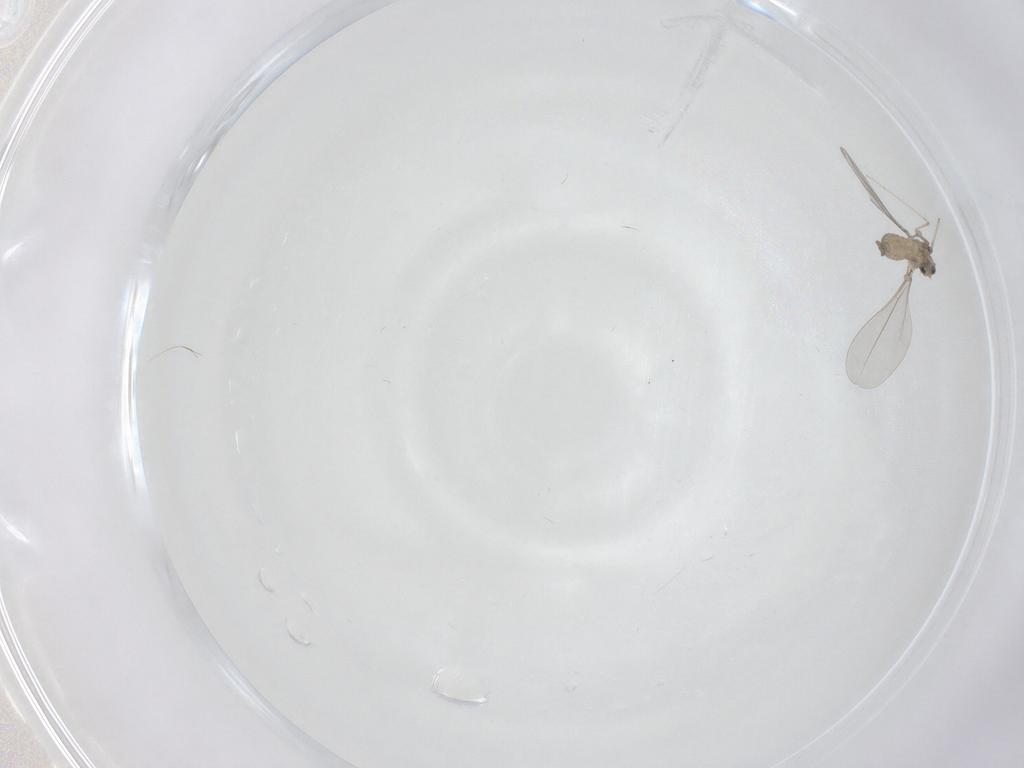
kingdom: Animalia
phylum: Arthropoda
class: Insecta
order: Diptera
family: Cecidomyiidae
